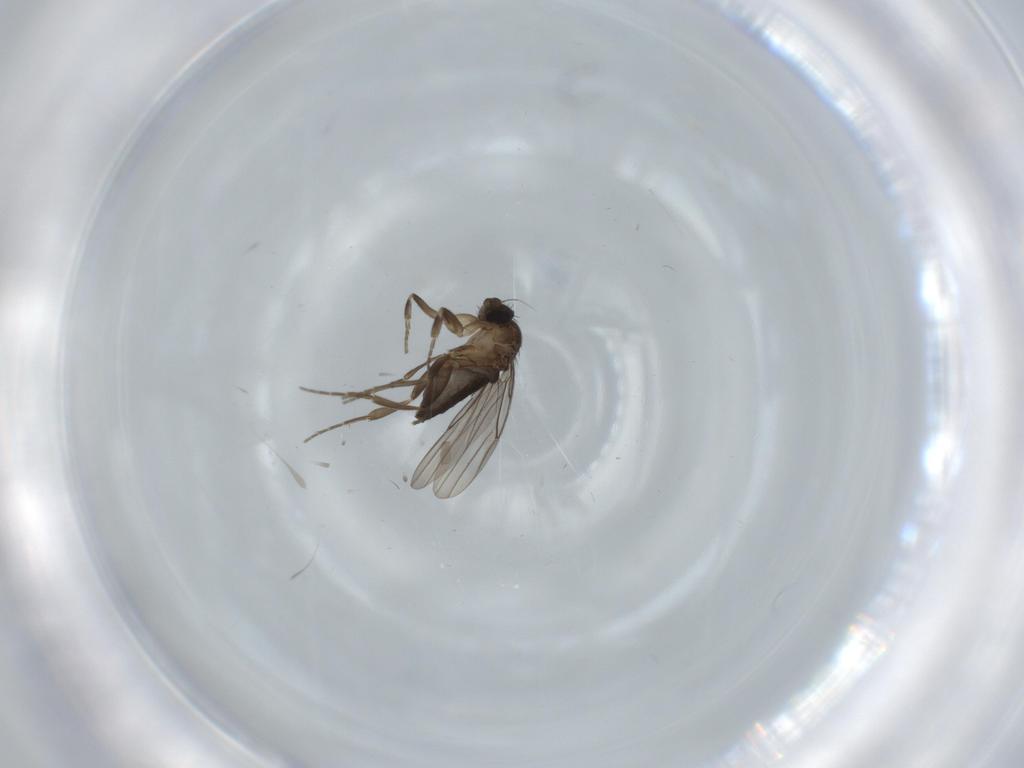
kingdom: Animalia
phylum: Arthropoda
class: Insecta
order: Diptera
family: Phoridae
